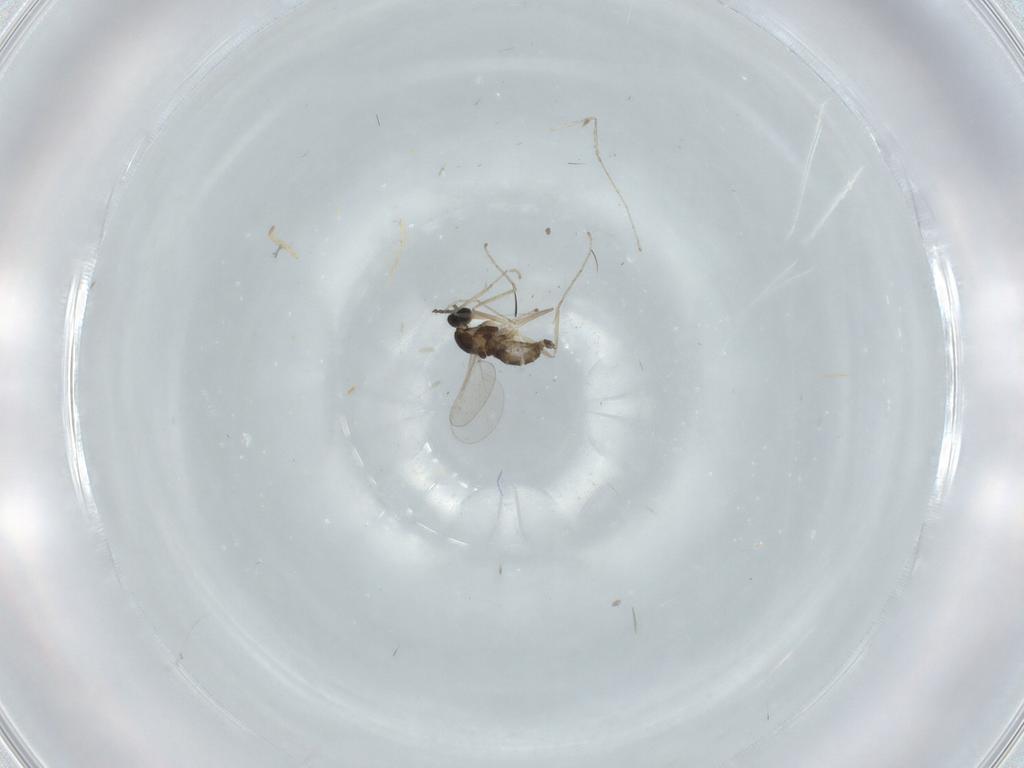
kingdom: Animalia
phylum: Arthropoda
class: Insecta
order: Diptera
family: Cecidomyiidae
